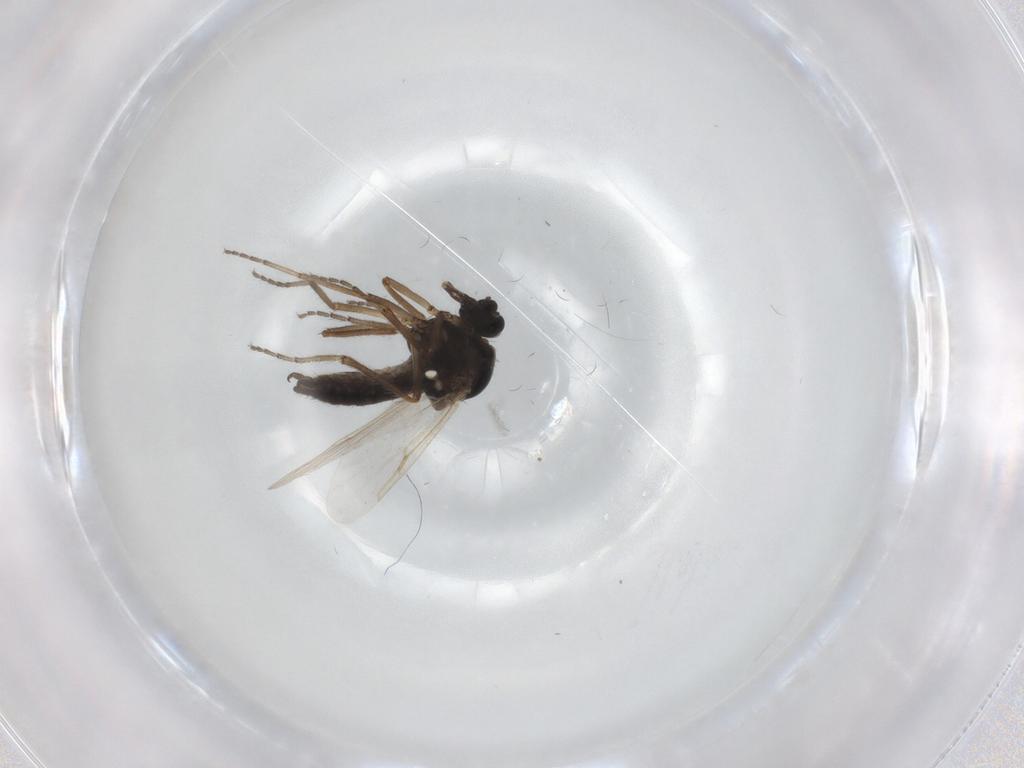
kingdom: Animalia
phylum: Arthropoda
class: Insecta
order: Diptera
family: Ceratopogonidae
